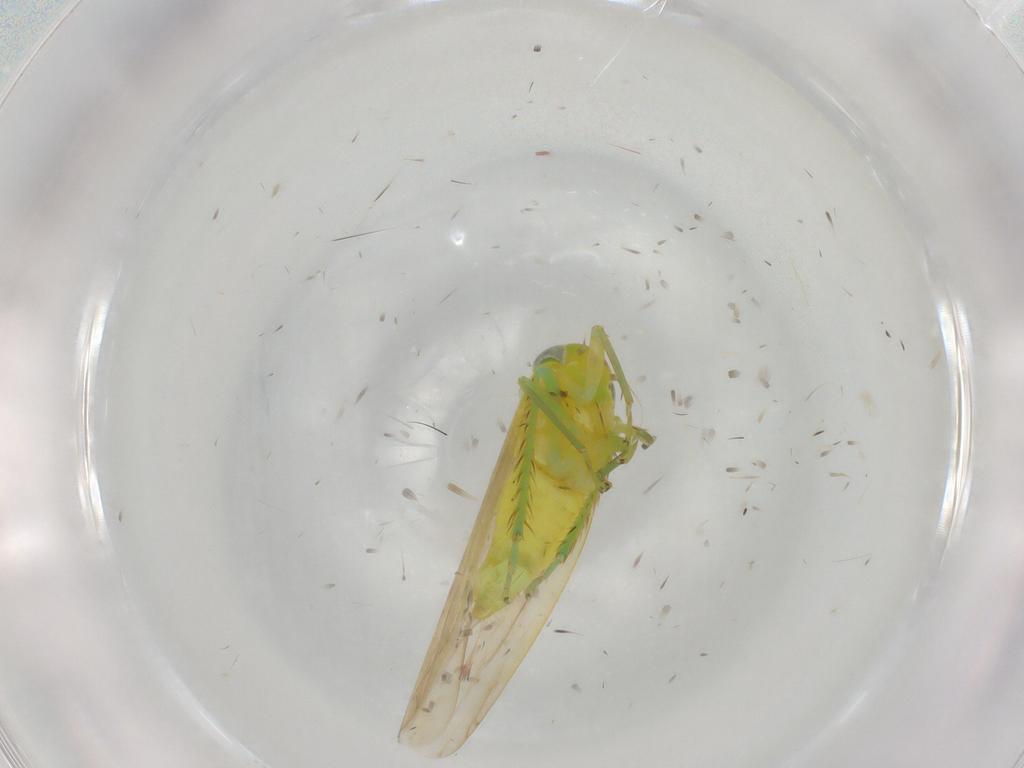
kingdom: Animalia
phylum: Arthropoda
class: Insecta
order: Hemiptera
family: Cicadellidae
